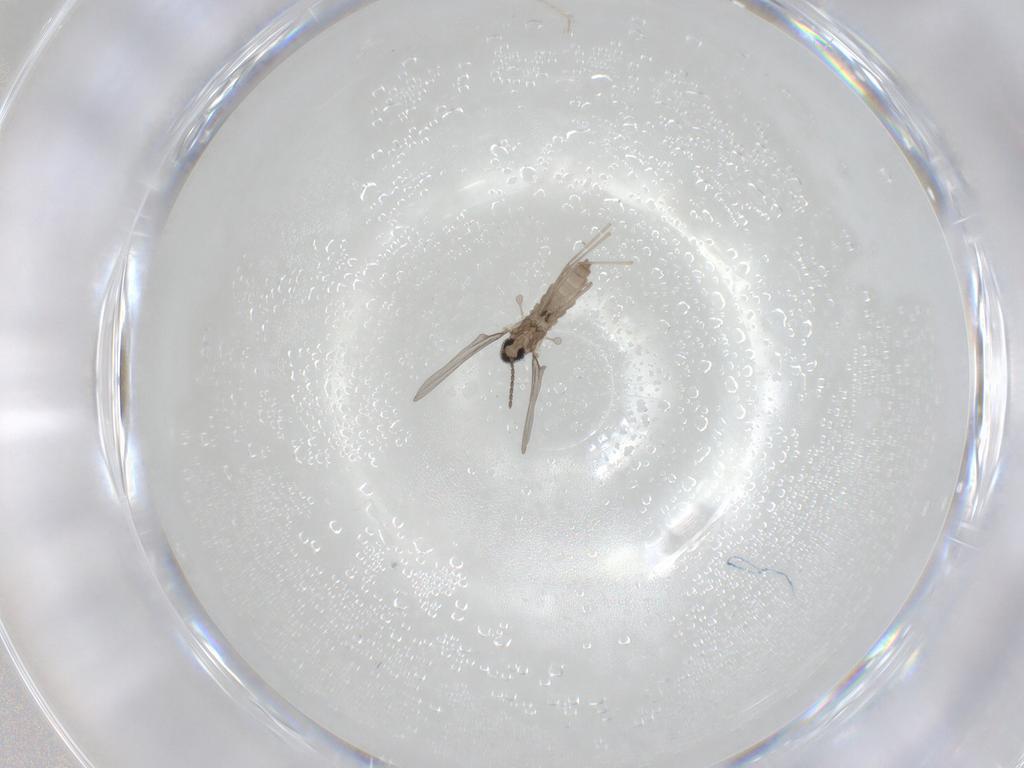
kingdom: Animalia
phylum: Arthropoda
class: Insecta
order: Diptera
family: Cecidomyiidae
